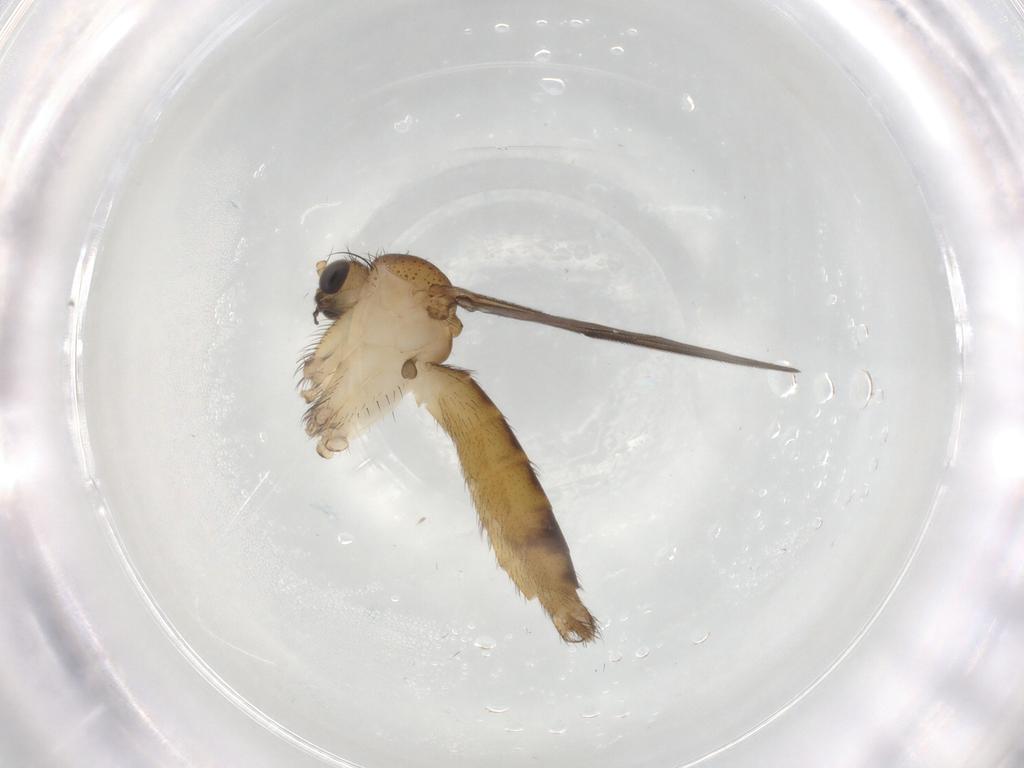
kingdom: Animalia
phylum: Arthropoda
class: Insecta
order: Diptera
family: Psychodidae
